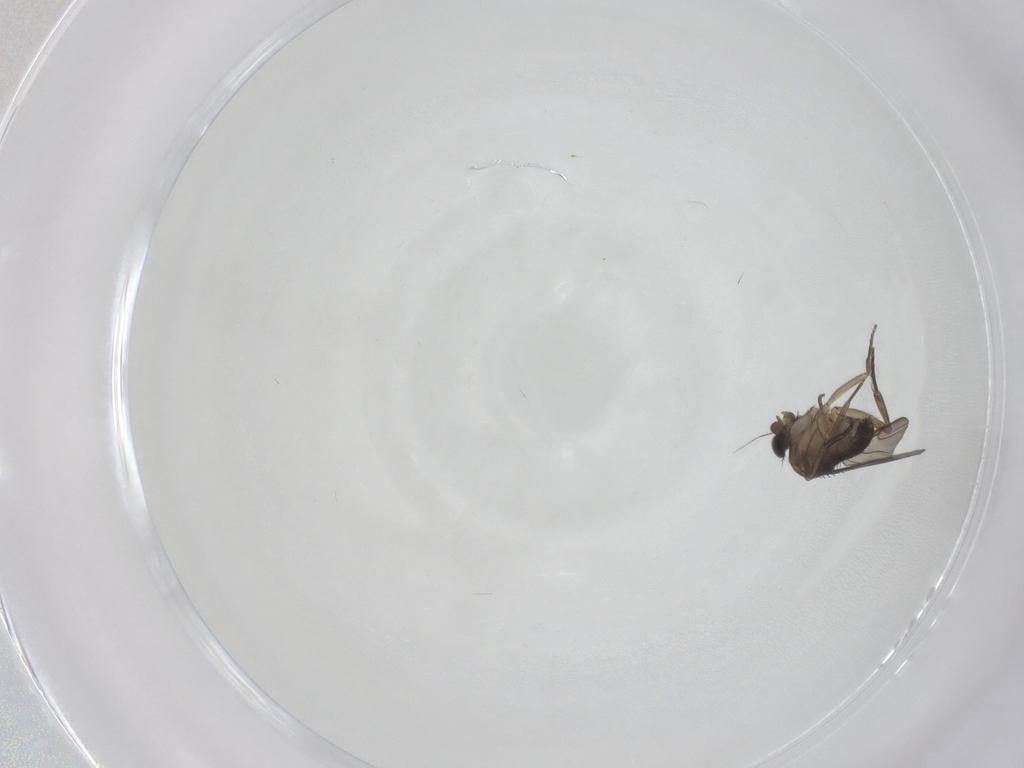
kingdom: Animalia
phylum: Arthropoda
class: Insecta
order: Diptera
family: Phoridae
